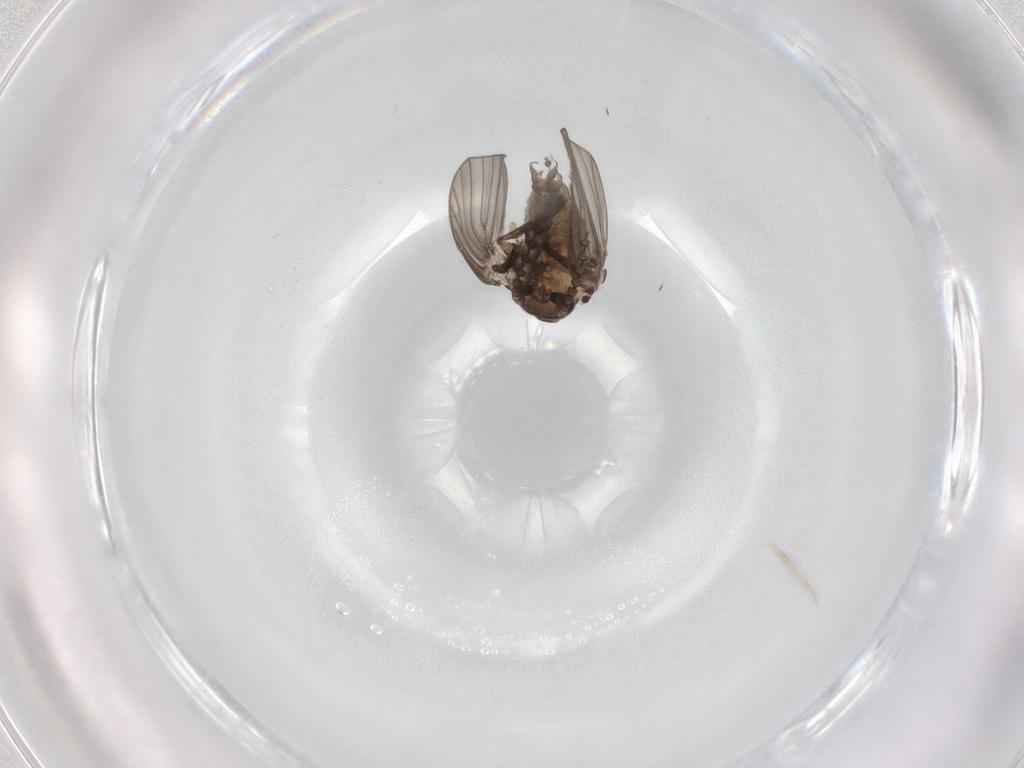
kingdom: Animalia
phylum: Arthropoda
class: Insecta
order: Diptera
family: Psychodidae
